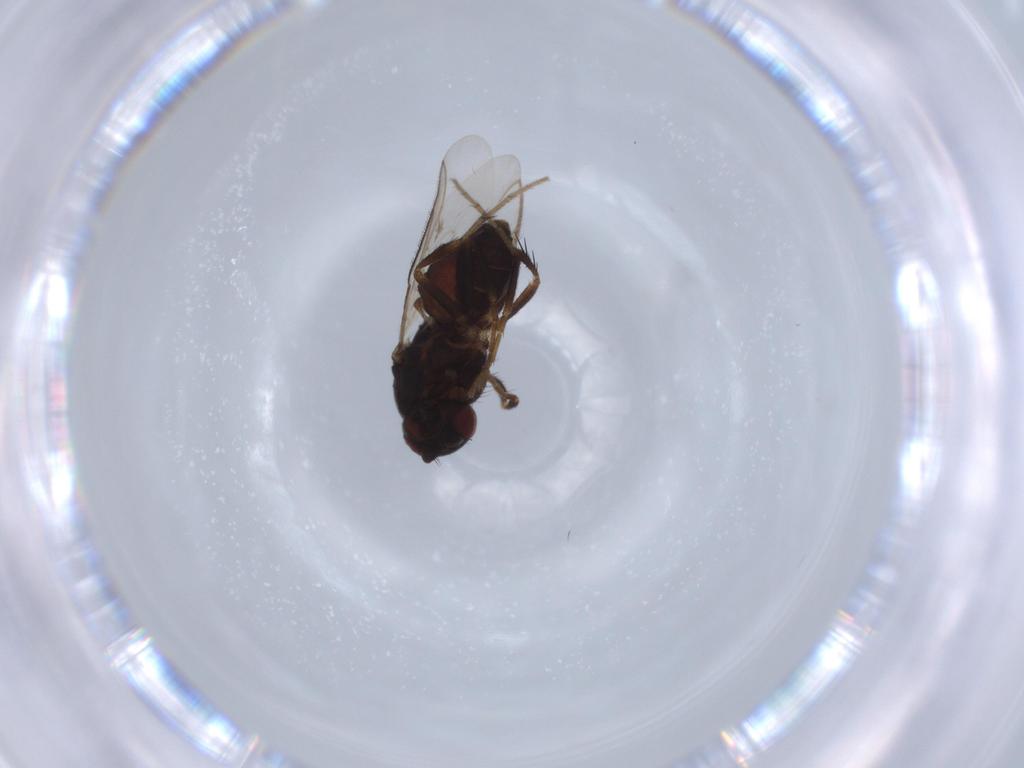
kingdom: Animalia
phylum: Arthropoda
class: Insecta
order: Diptera
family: Sphaeroceridae
